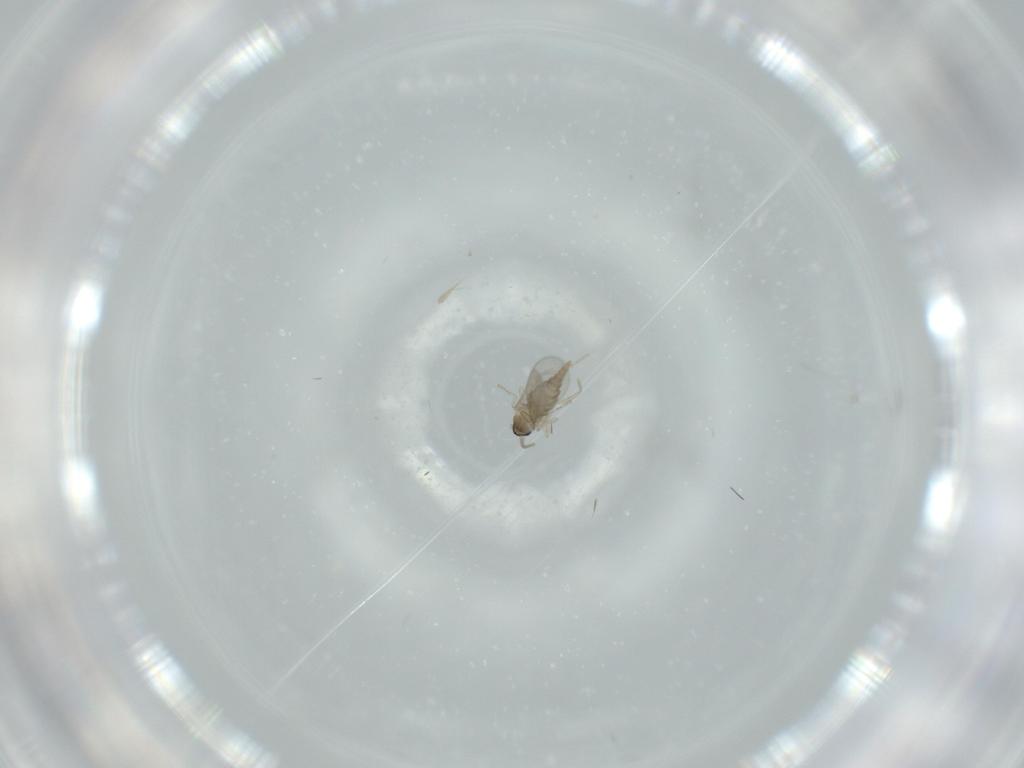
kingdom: Animalia
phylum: Arthropoda
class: Insecta
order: Diptera
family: Cecidomyiidae
